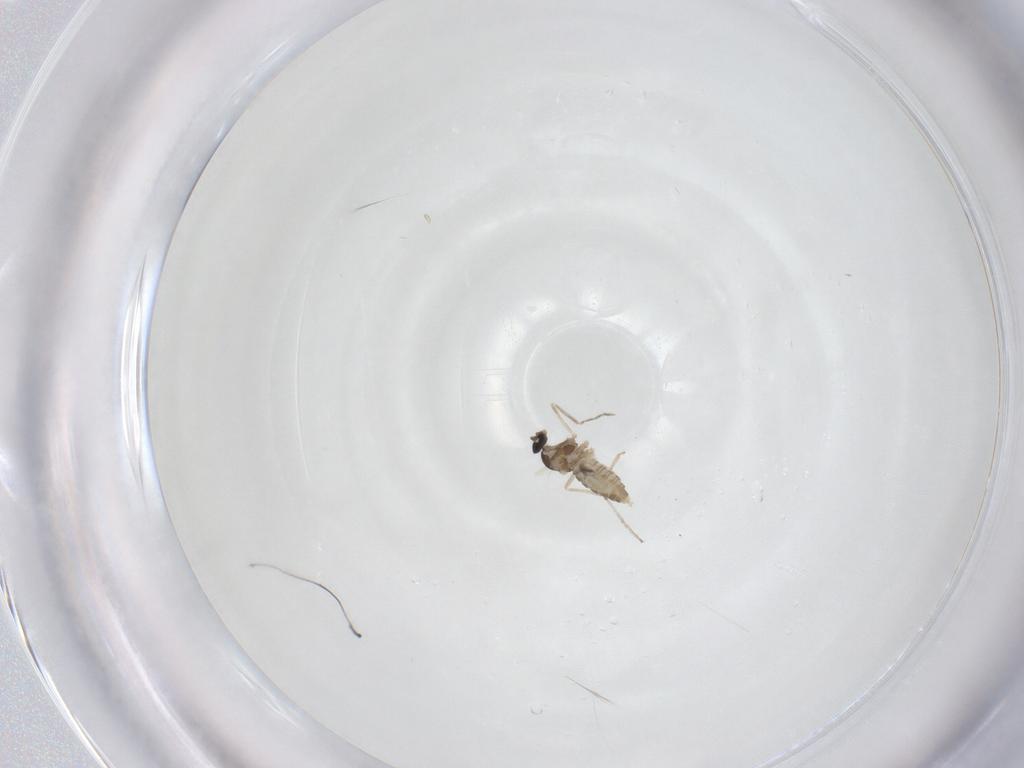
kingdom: Animalia
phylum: Arthropoda
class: Insecta
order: Diptera
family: Cecidomyiidae
